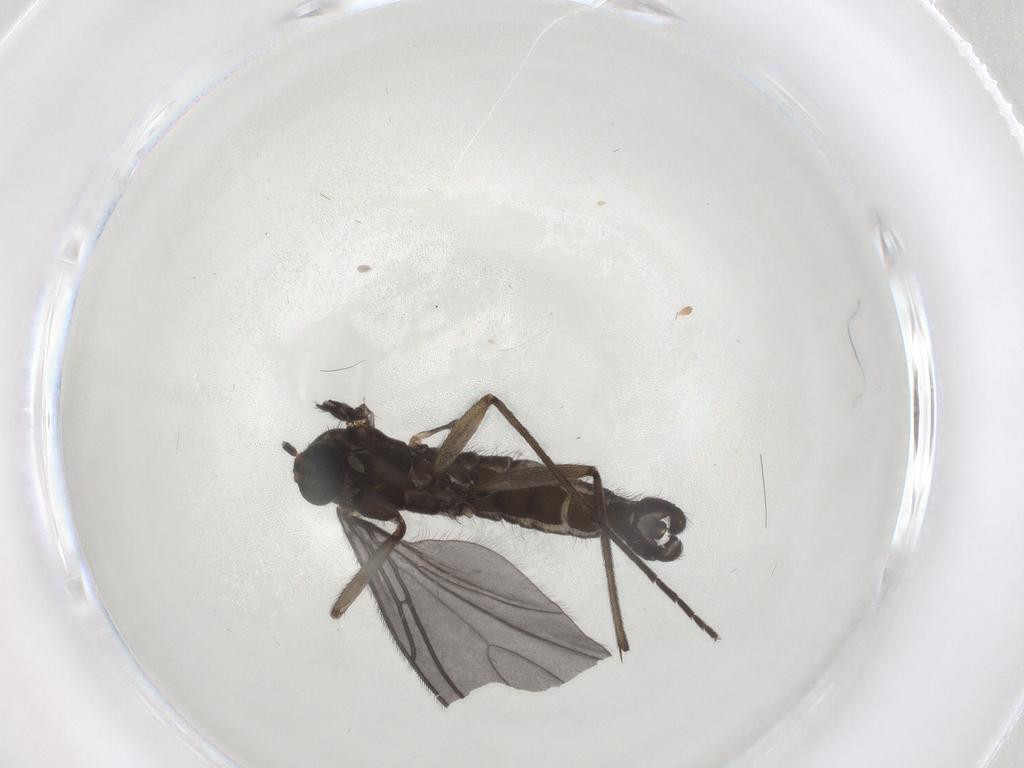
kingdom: Animalia
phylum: Arthropoda
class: Insecta
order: Diptera
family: Sciaridae
